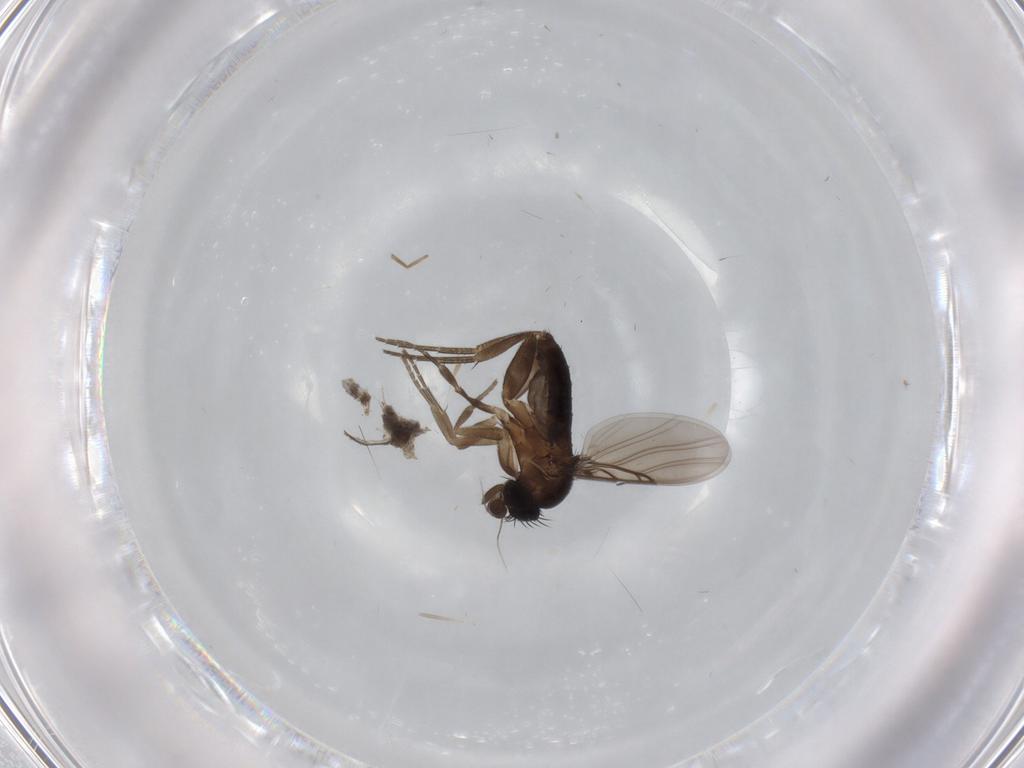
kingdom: Animalia
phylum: Arthropoda
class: Insecta
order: Diptera
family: Phoridae
